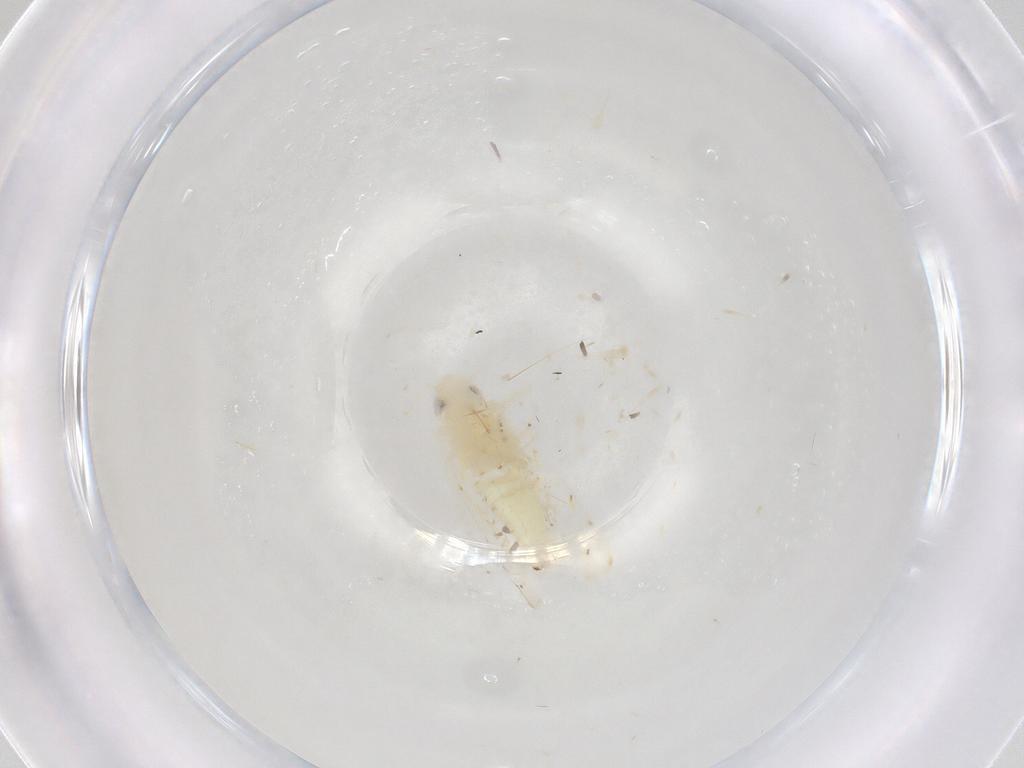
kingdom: Animalia
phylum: Arthropoda
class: Insecta
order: Hemiptera
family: Cicadellidae
